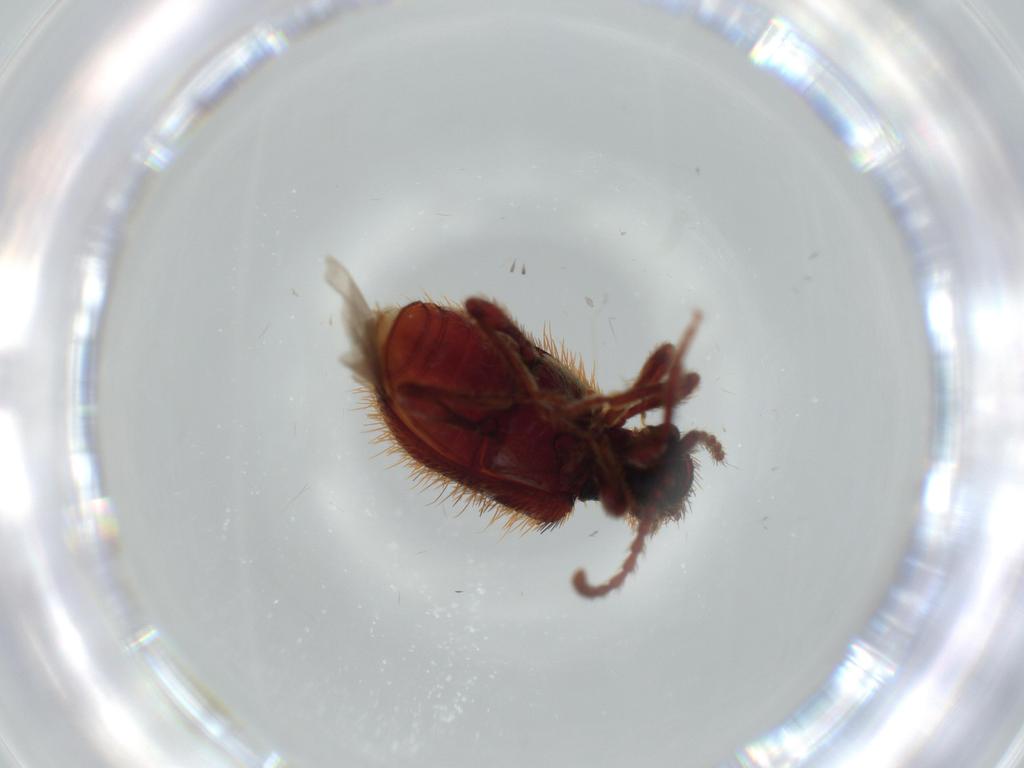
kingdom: Animalia
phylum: Arthropoda
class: Insecta
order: Coleoptera
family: Ptinidae
